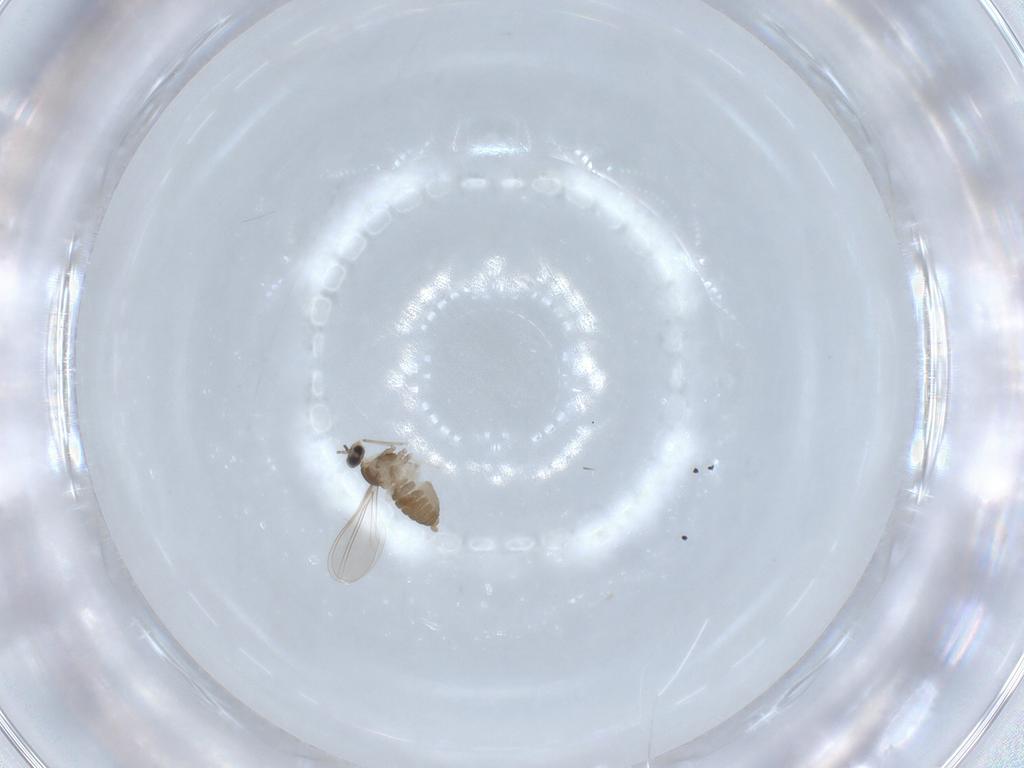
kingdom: Animalia
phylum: Arthropoda
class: Insecta
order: Diptera
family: Cecidomyiidae
